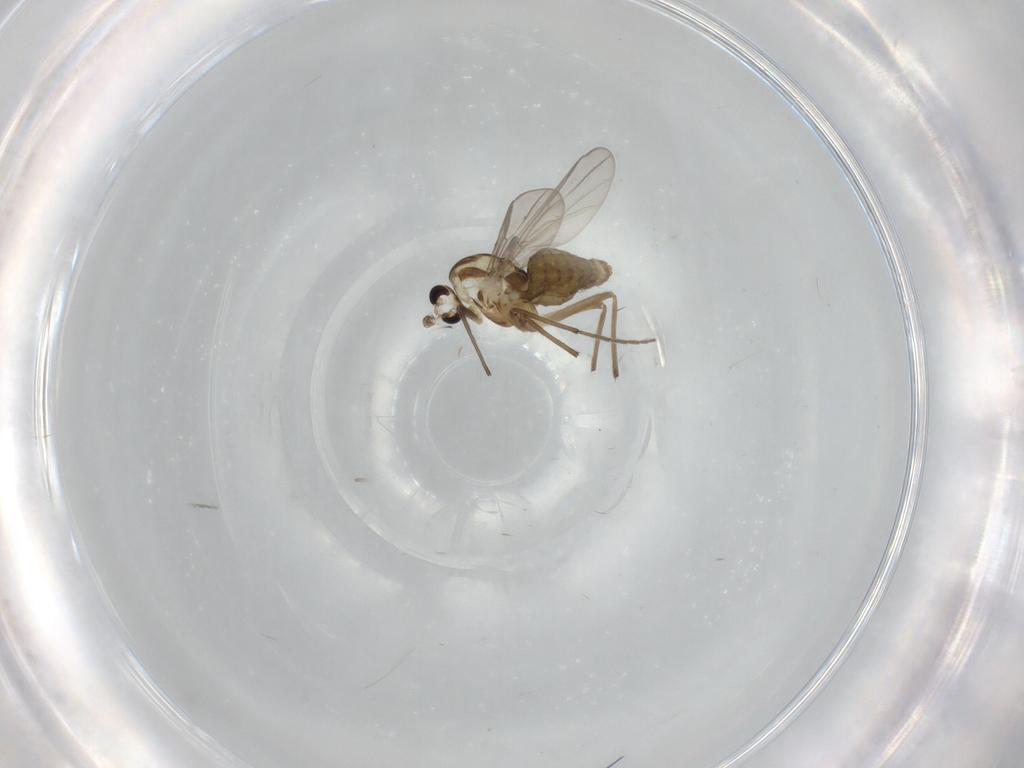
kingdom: Animalia
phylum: Arthropoda
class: Insecta
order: Diptera
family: Chironomidae
